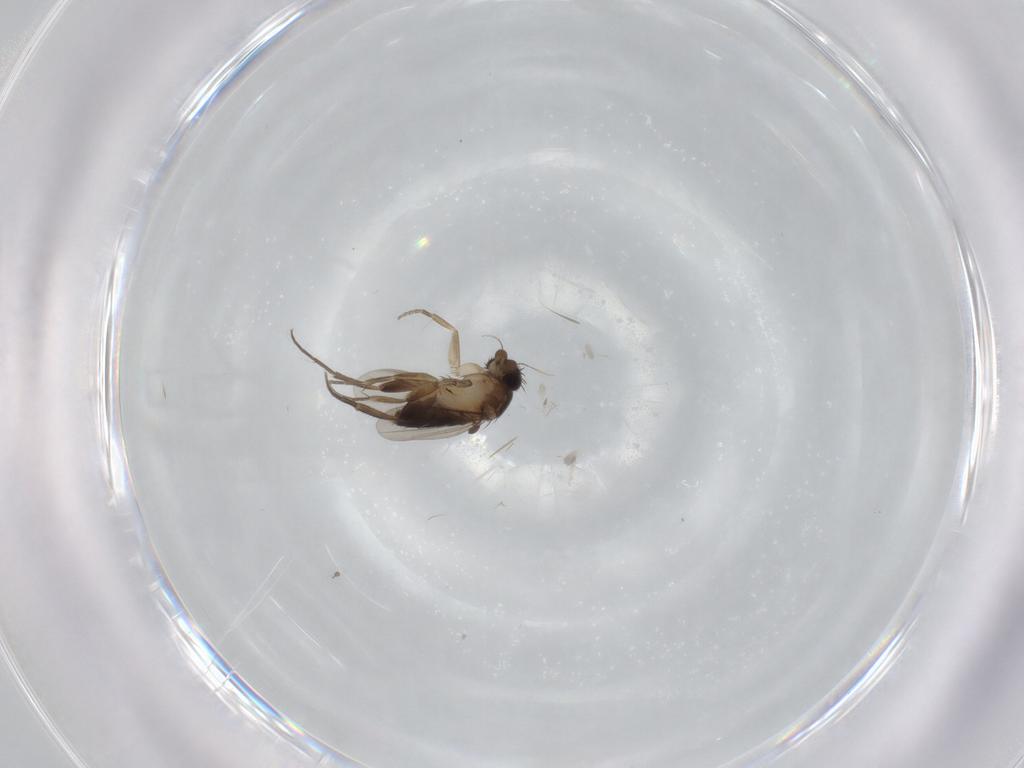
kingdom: Animalia
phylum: Arthropoda
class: Insecta
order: Diptera
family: Phoridae
